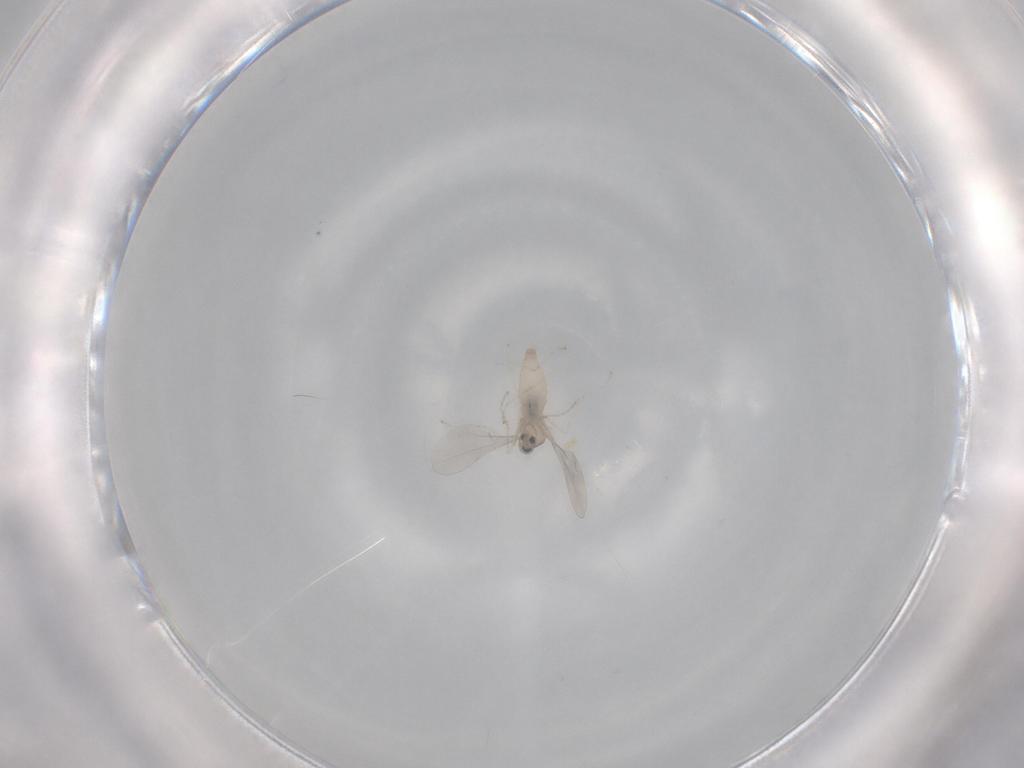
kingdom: Animalia
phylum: Arthropoda
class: Insecta
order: Diptera
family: Cecidomyiidae
